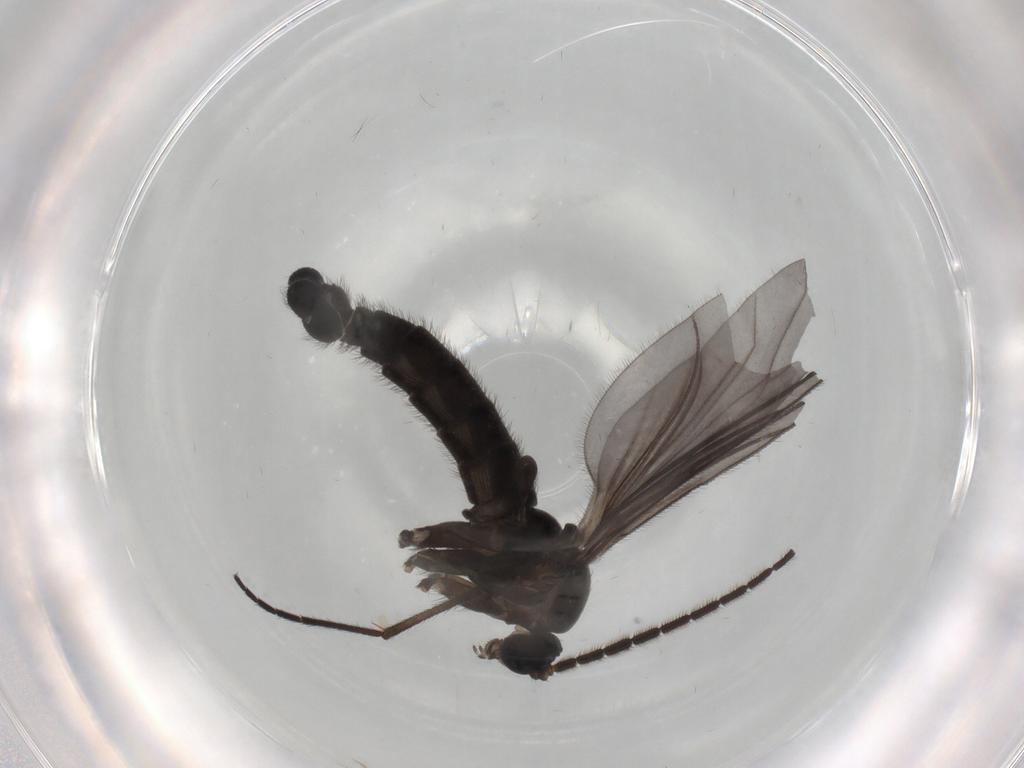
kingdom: Animalia
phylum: Arthropoda
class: Insecta
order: Diptera
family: Sciaridae
